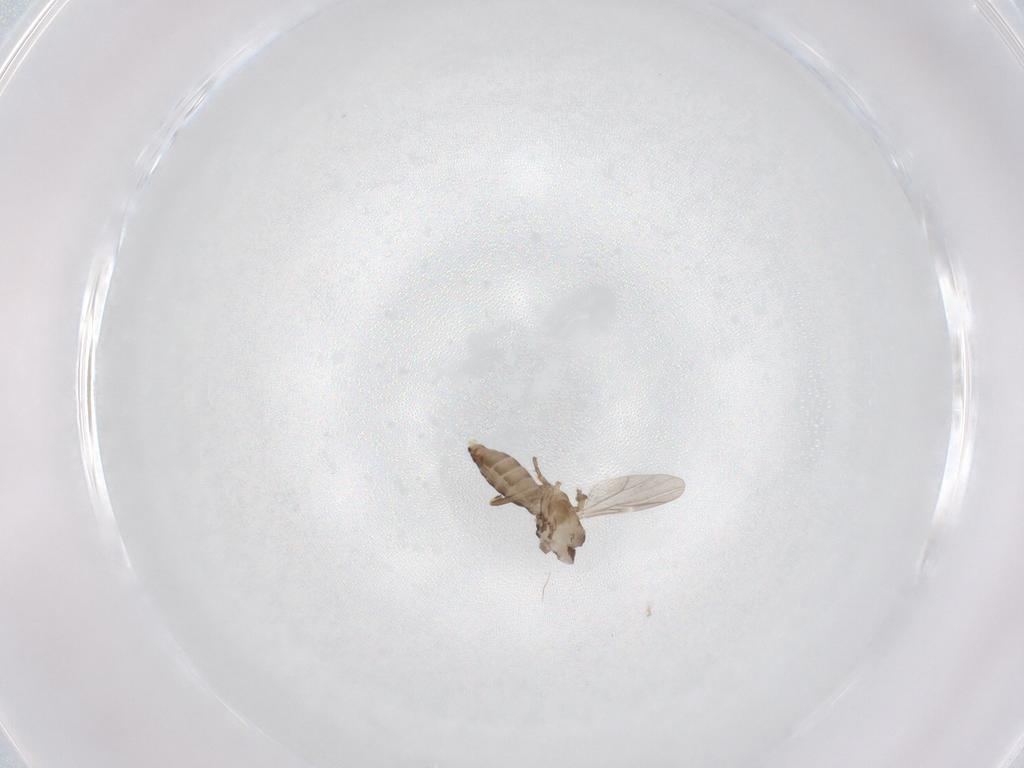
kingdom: Animalia
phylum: Arthropoda
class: Insecta
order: Diptera
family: Ceratopogonidae
